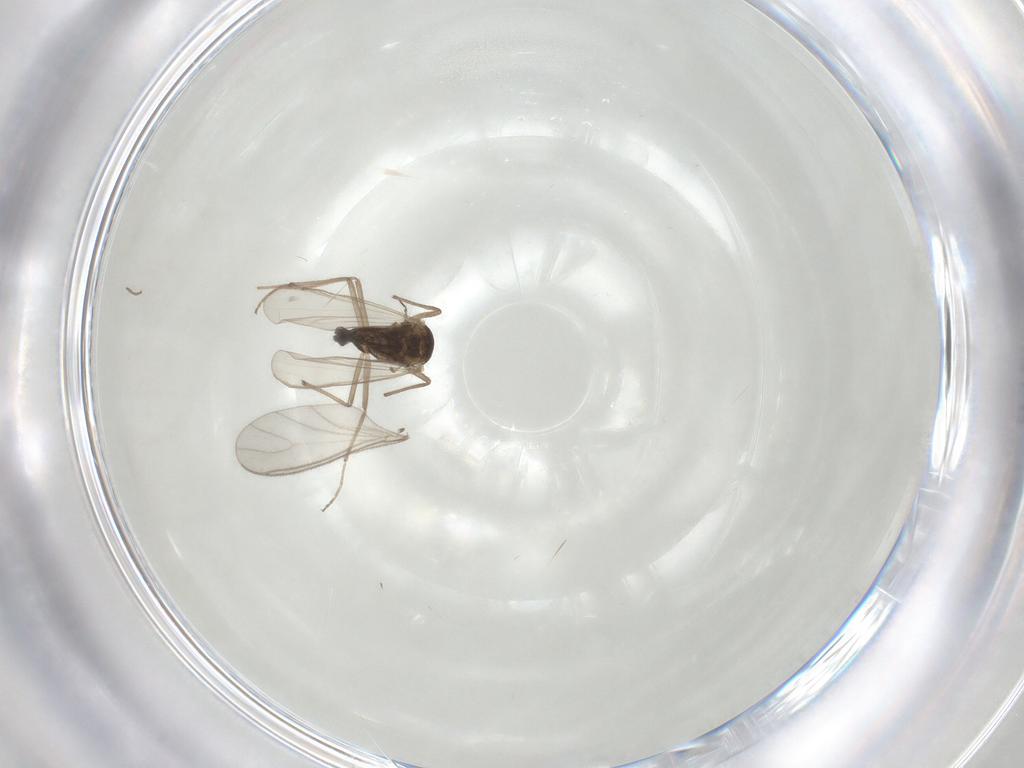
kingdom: Animalia
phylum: Arthropoda
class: Insecta
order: Diptera
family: Chironomidae
